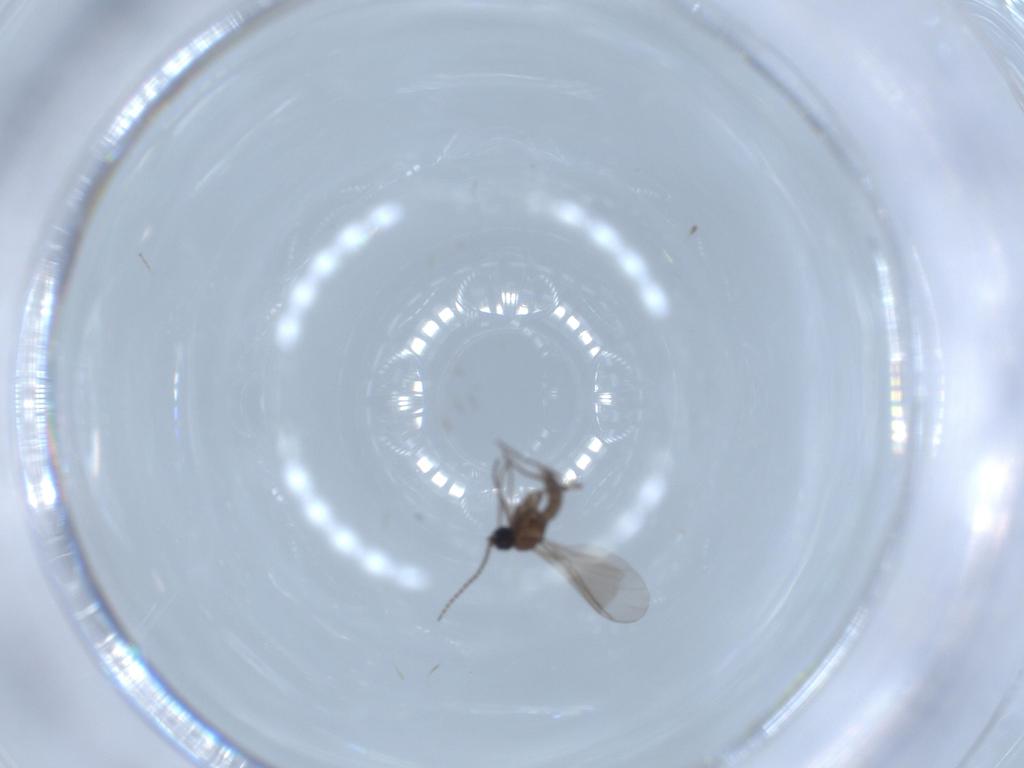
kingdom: Animalia
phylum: Arthropoda
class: Insecta
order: Diptera
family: Sciaridae
